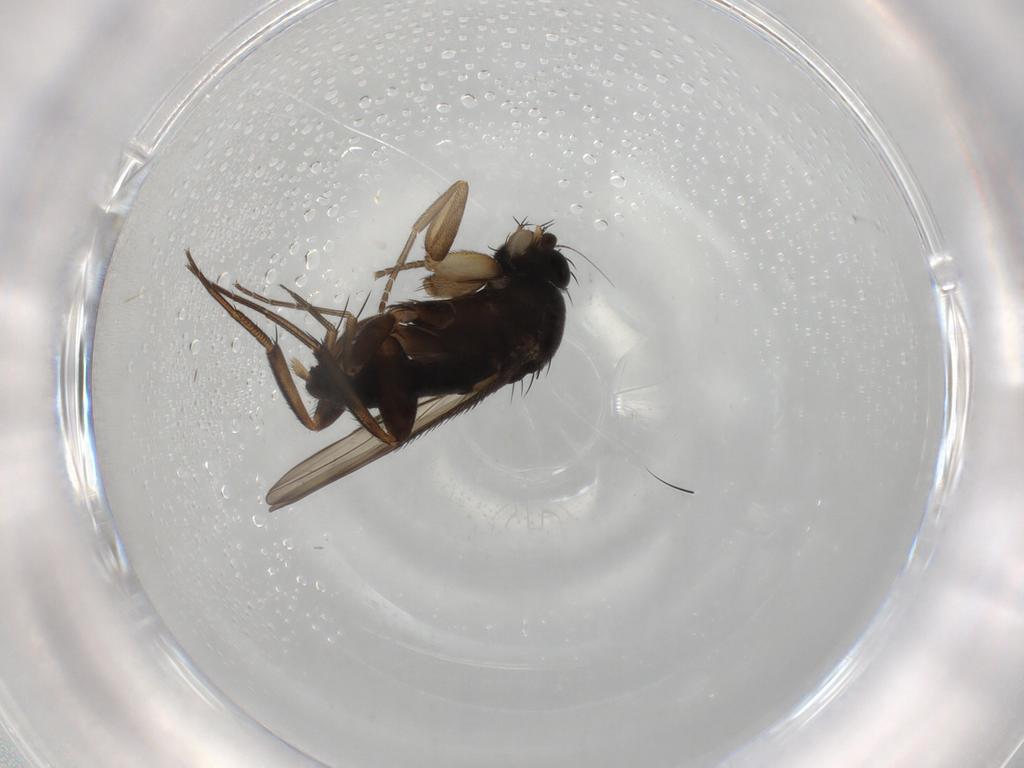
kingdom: Animalia
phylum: Arthropoda
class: Insecta
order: Diptera
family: Phoridae
